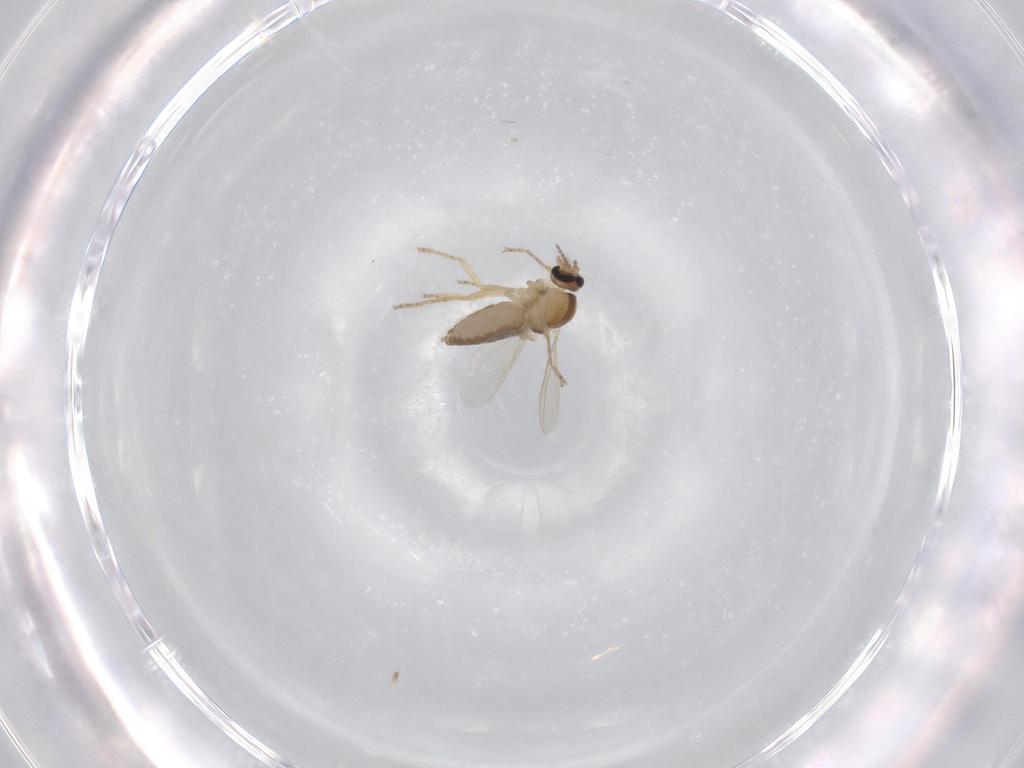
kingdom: Animalia
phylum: Arthropoda
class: Insecta
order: Diptera
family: Ceratopogonidae
